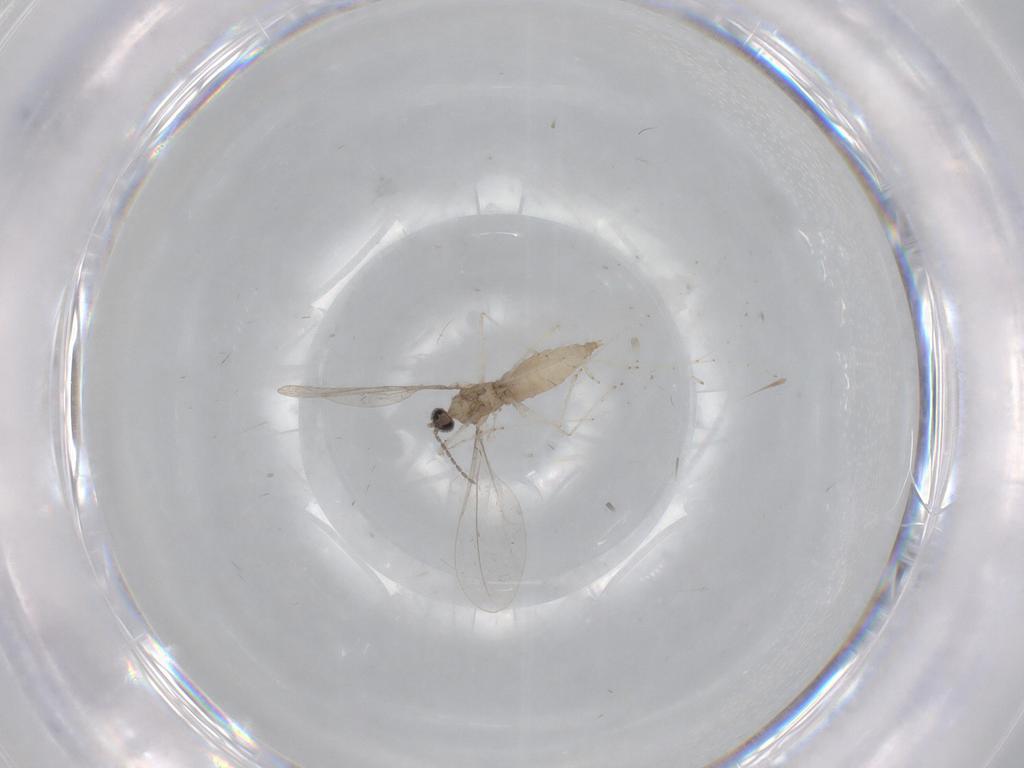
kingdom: Animalia
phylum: Arthropoda
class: Insecta
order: Diptera
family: Cecidomyiidae
